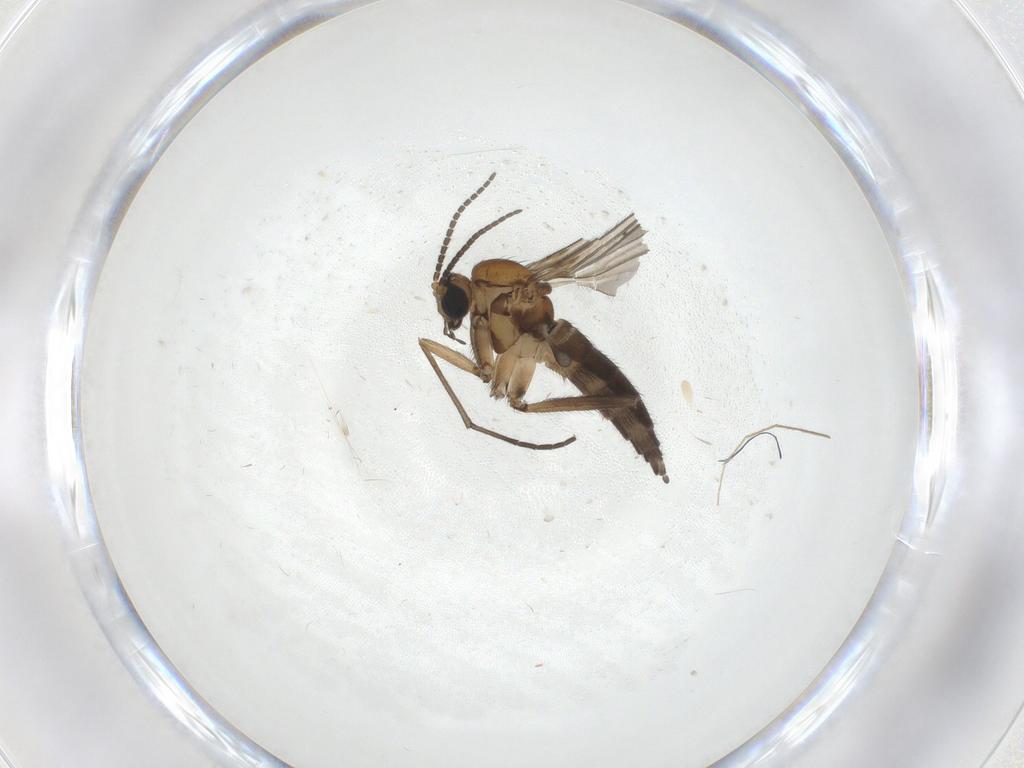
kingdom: Animalia
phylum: Arthropoda
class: Insecta
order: Diptera
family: Sciaridae
